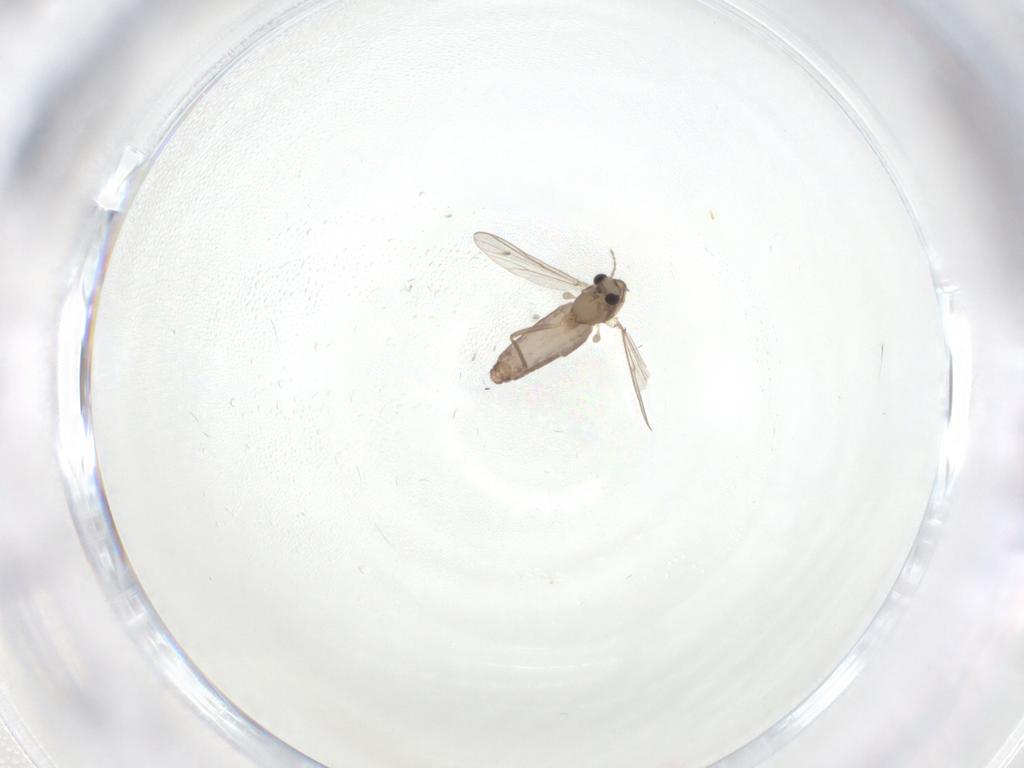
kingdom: Animalia
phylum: Arthropoda
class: Insecta
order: Diptera
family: Chironomidae
